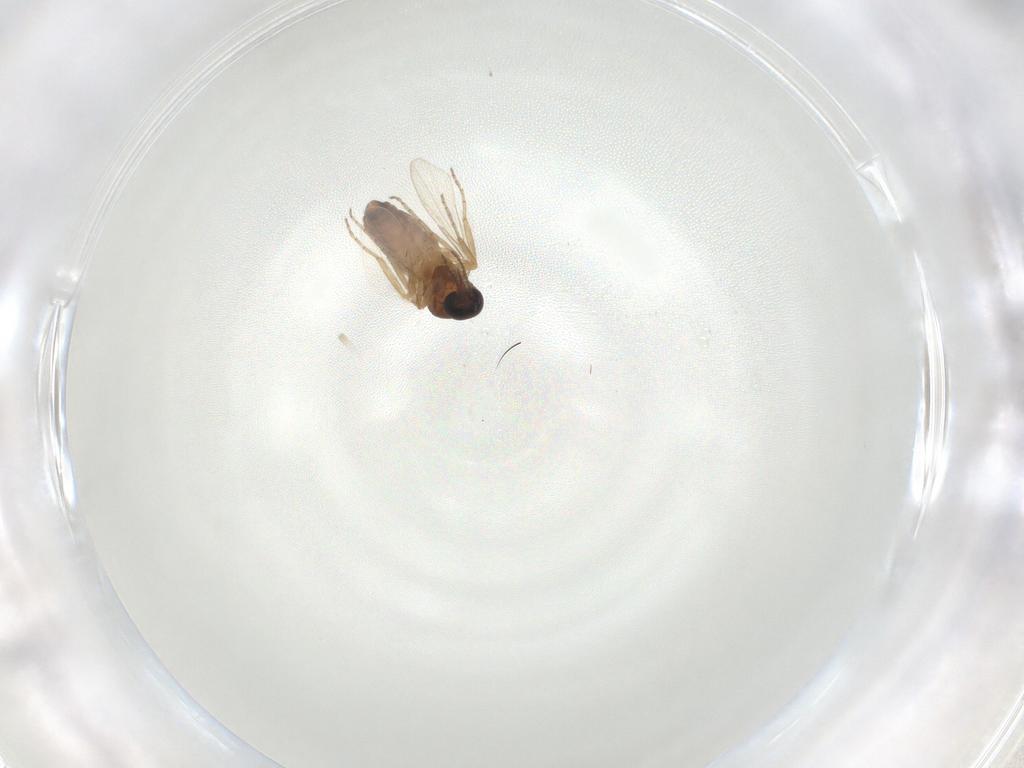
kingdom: Animalia
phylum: Arthropoda
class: Insecta
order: Diptera
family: Ceratopogonidae
